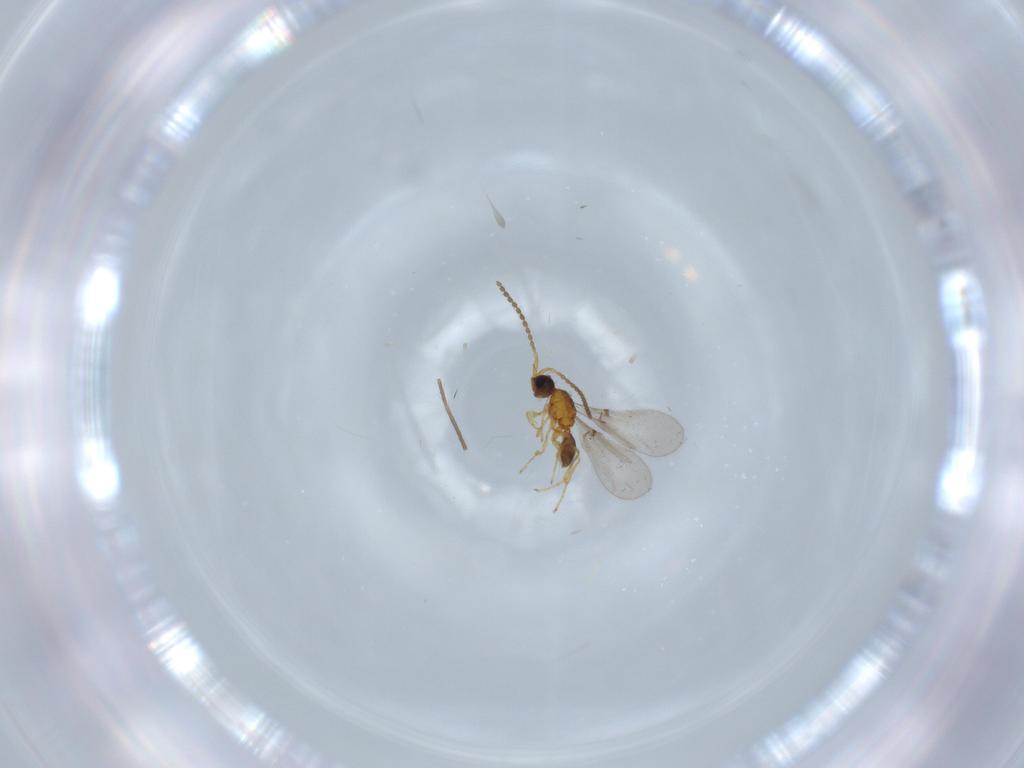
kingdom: Animalia
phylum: Arthropoda
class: Insecta
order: Hymenoptera
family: Diapriidae
